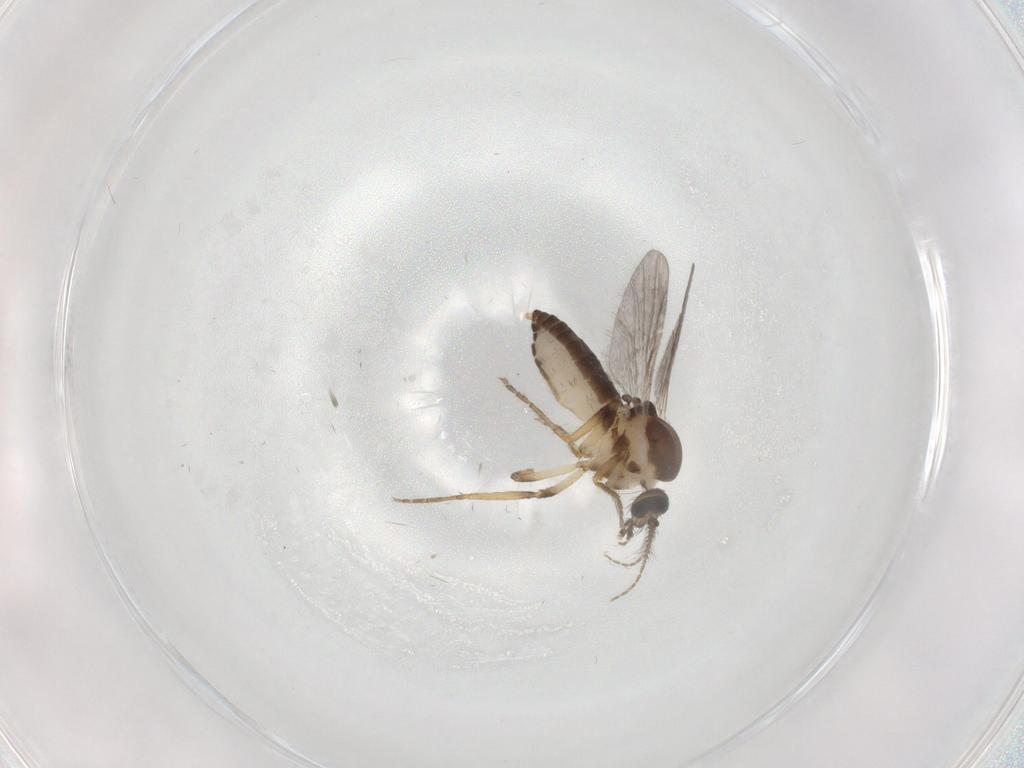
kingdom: Animalia
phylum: Arthropoda
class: Insecta
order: Diptera
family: Ceratopogonidae
